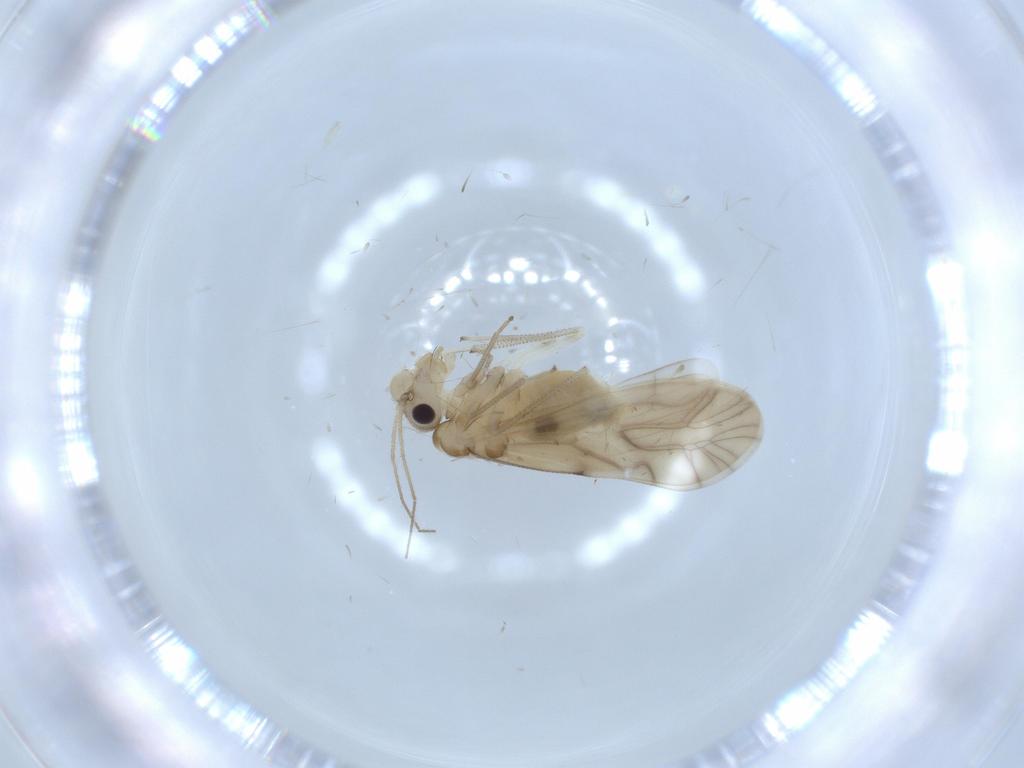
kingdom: Animalia
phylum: Arthropoda
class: Insecta
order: Psocodea
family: Caeciliusidae
